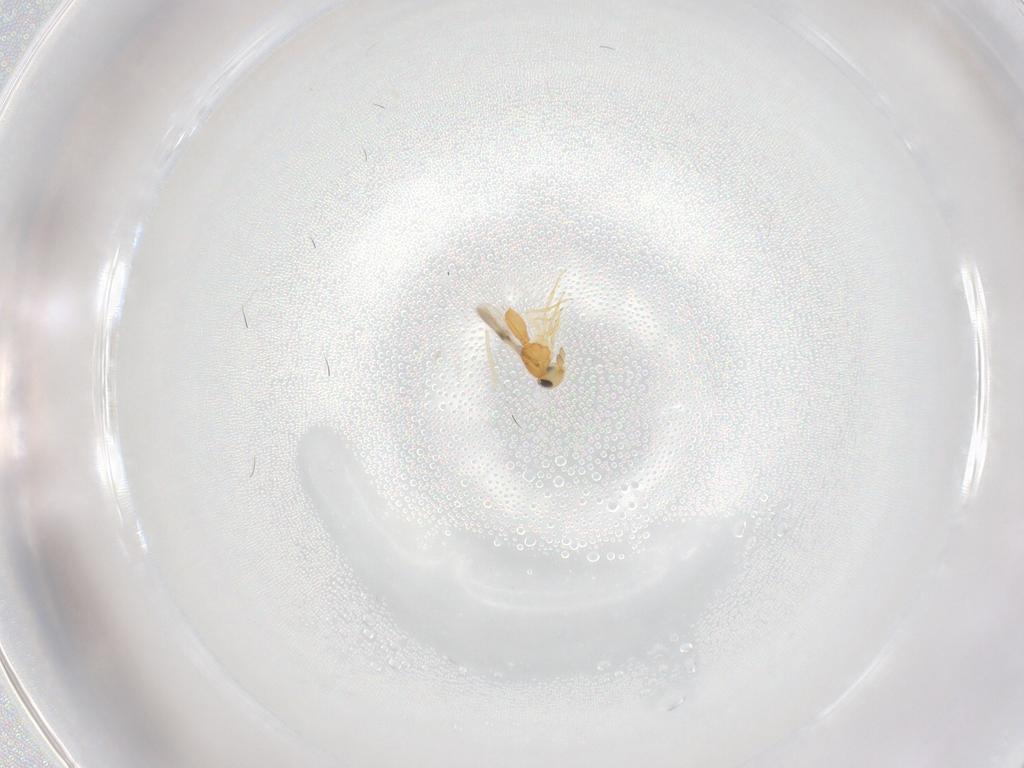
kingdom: Animalia
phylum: Arthropoda
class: Insecta
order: Hymenoptera
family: Scelionidae
